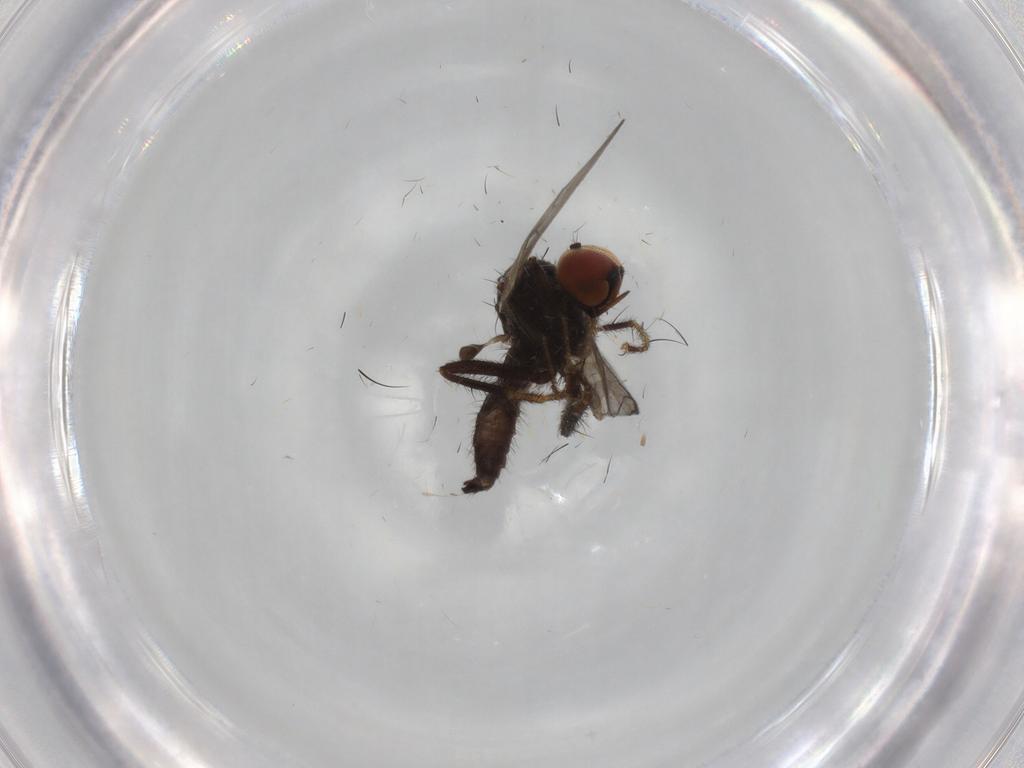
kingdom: Animalia
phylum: Arthropoda
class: Insecta
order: Diptera
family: Hybotidae
